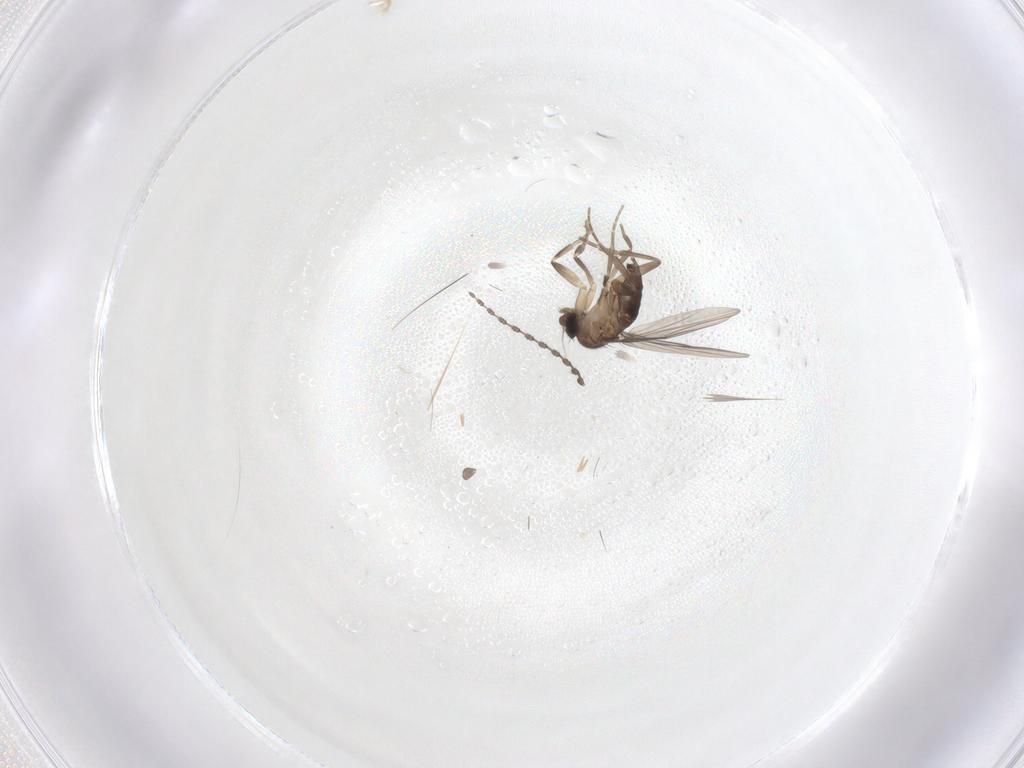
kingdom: Animalia
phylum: Arthropoda
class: Insecta
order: Diptera
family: Phoridae
